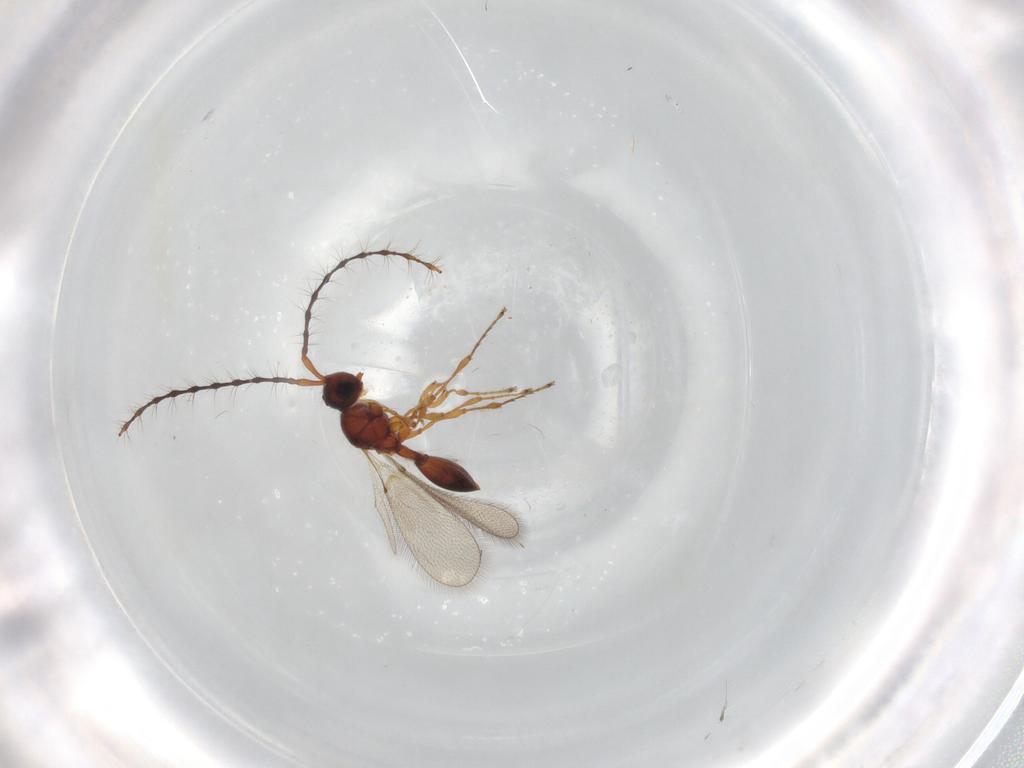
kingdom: Animalia
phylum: Arthropoda
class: Insecta
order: Hymenoptera
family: Diapriidae
